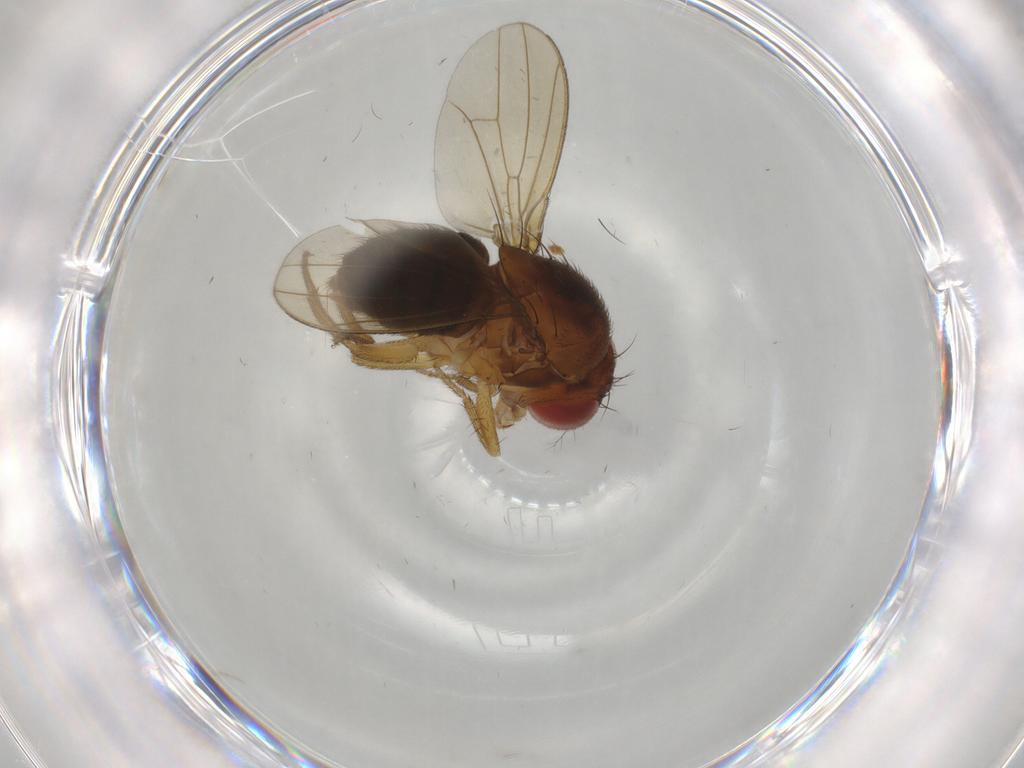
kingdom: Animalia
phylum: Arthropoda
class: Insecta
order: Diptera
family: Drosophilidae
